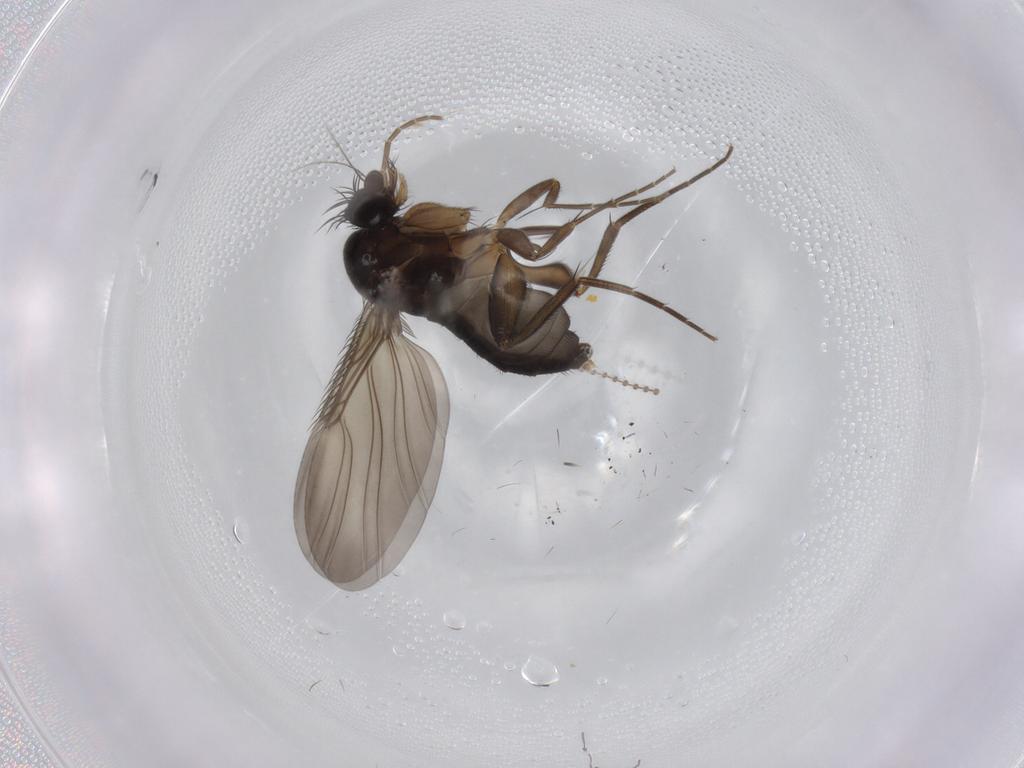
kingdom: Animalia
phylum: Arthropoda
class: Insecta
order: Diptera
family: Phoridae
